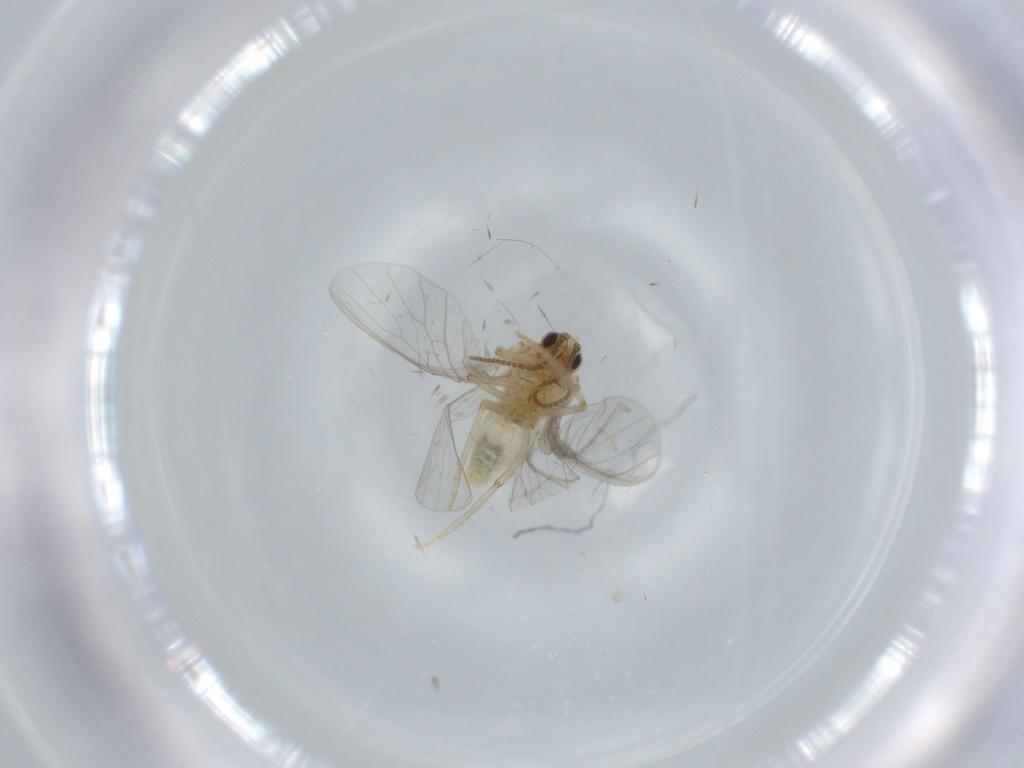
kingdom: Animalia
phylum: Arthropoda
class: Insecta
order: Neuroptera
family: Coniopterygidae
